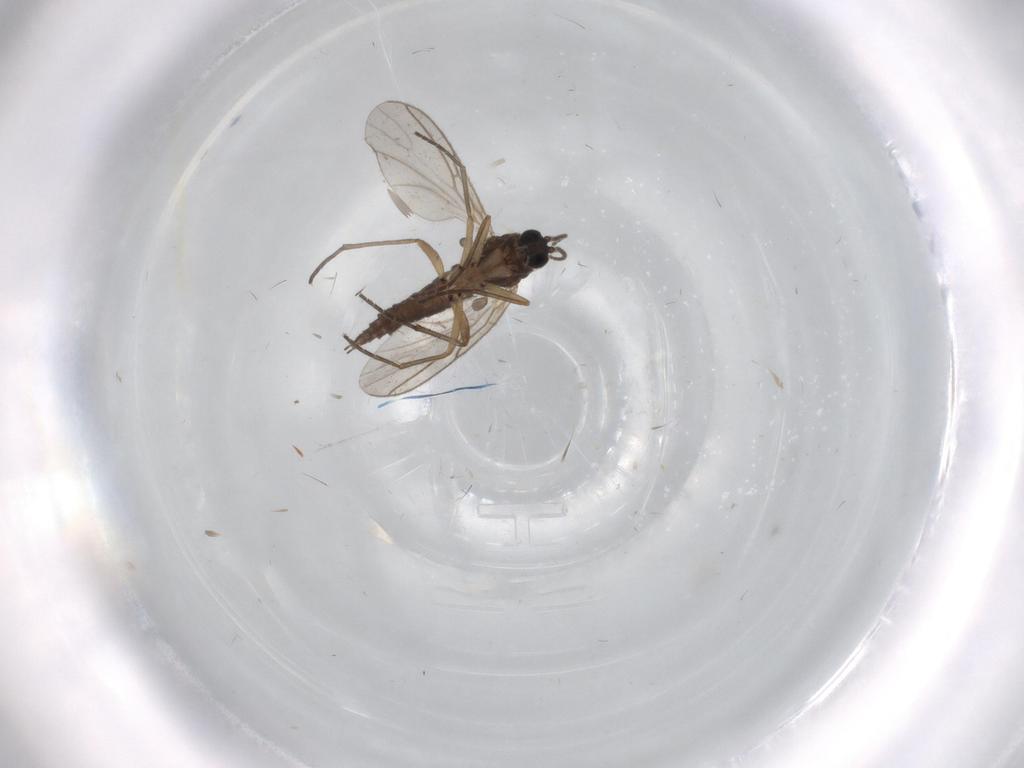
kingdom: Animalia
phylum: Arthropoda
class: Insecta
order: Diptera
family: Sciaridae
